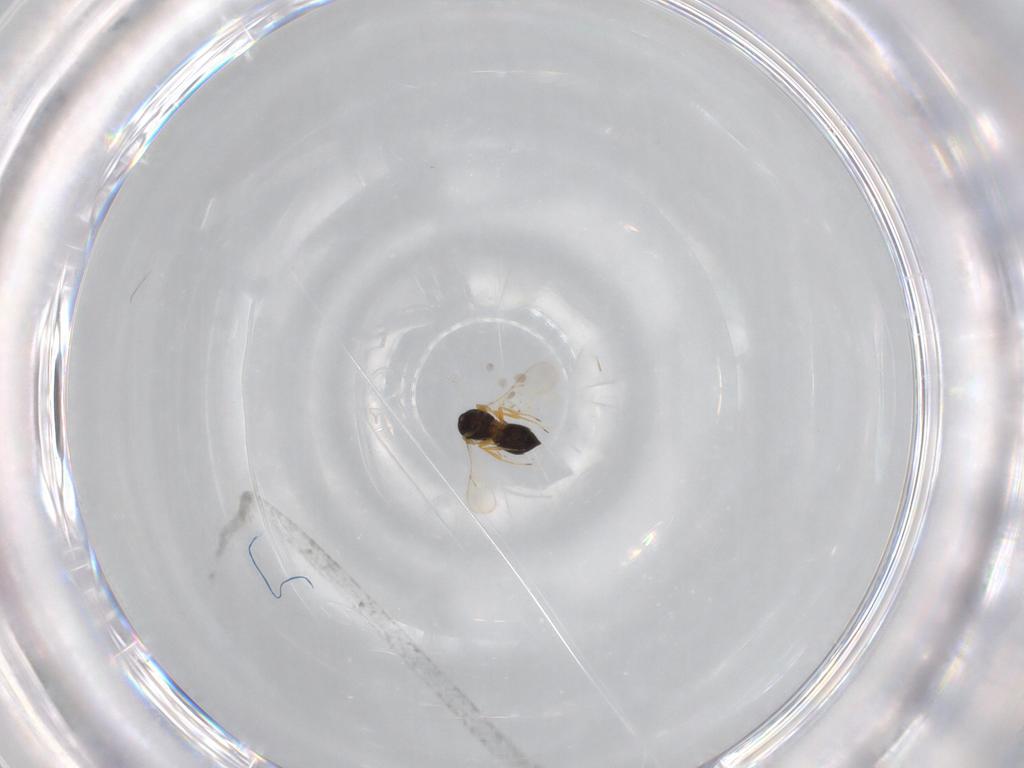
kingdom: Animalia
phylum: Arthropoda
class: Insecta
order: Hymenoptera
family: Scelionidae
